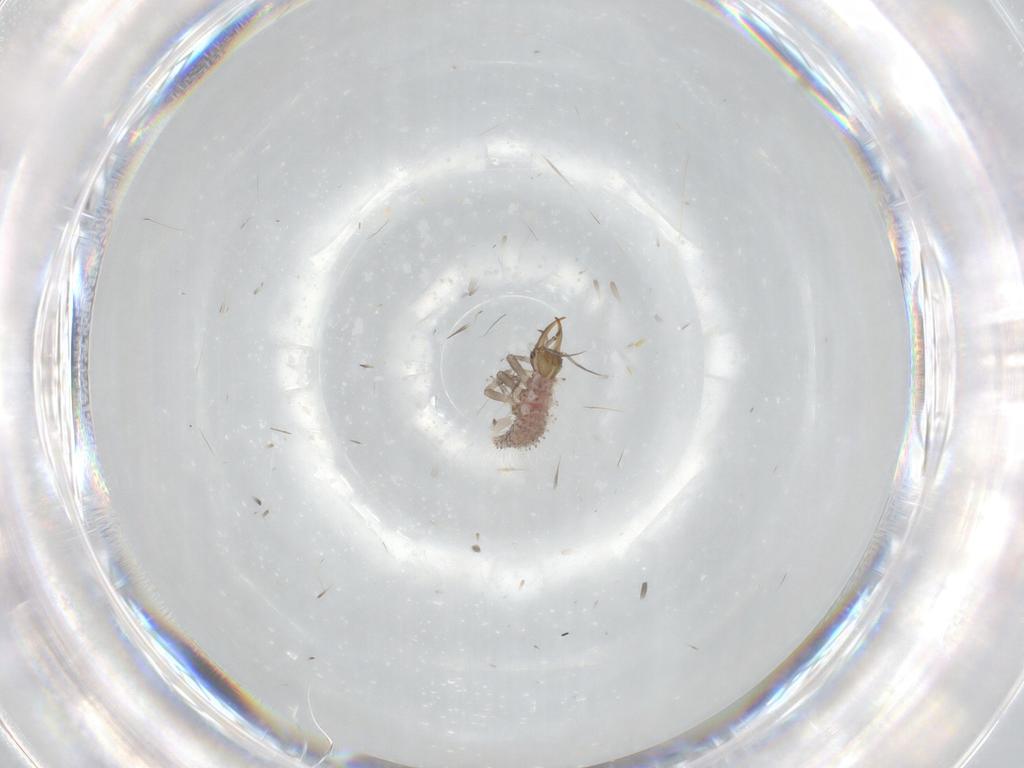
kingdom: Animalia
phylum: Arthropoda
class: Insecta
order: Neuroptera
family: Chrysopidae
